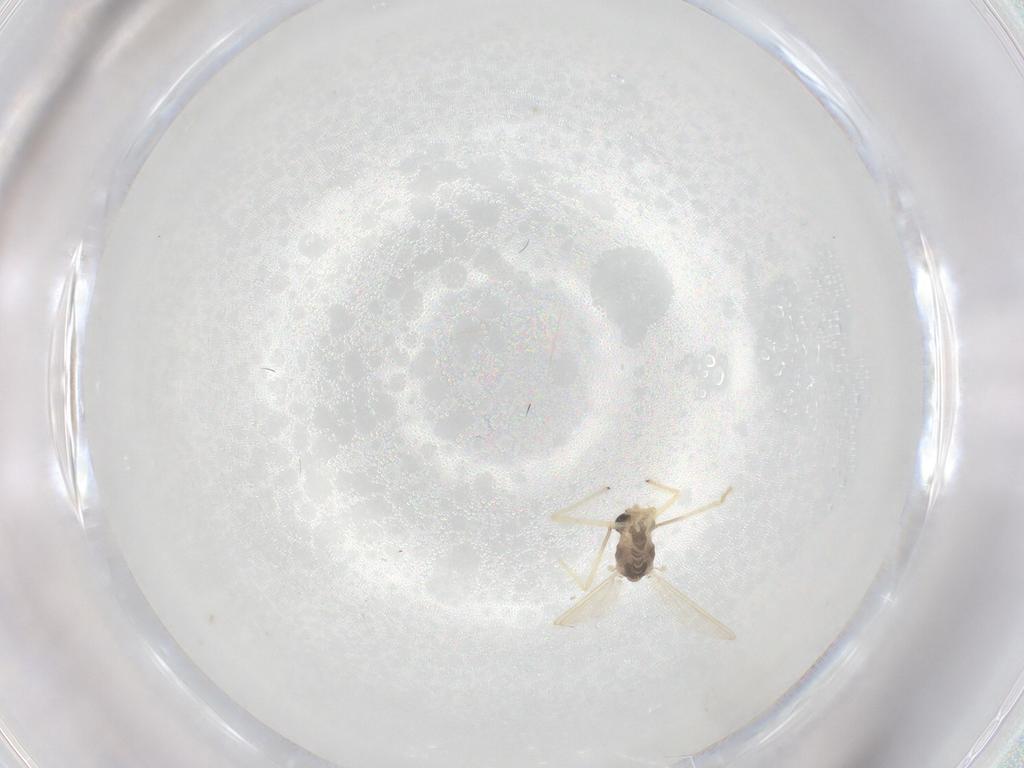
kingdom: Animalia
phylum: Arthropoda
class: Insecta
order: Diptera
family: Chironomidae
